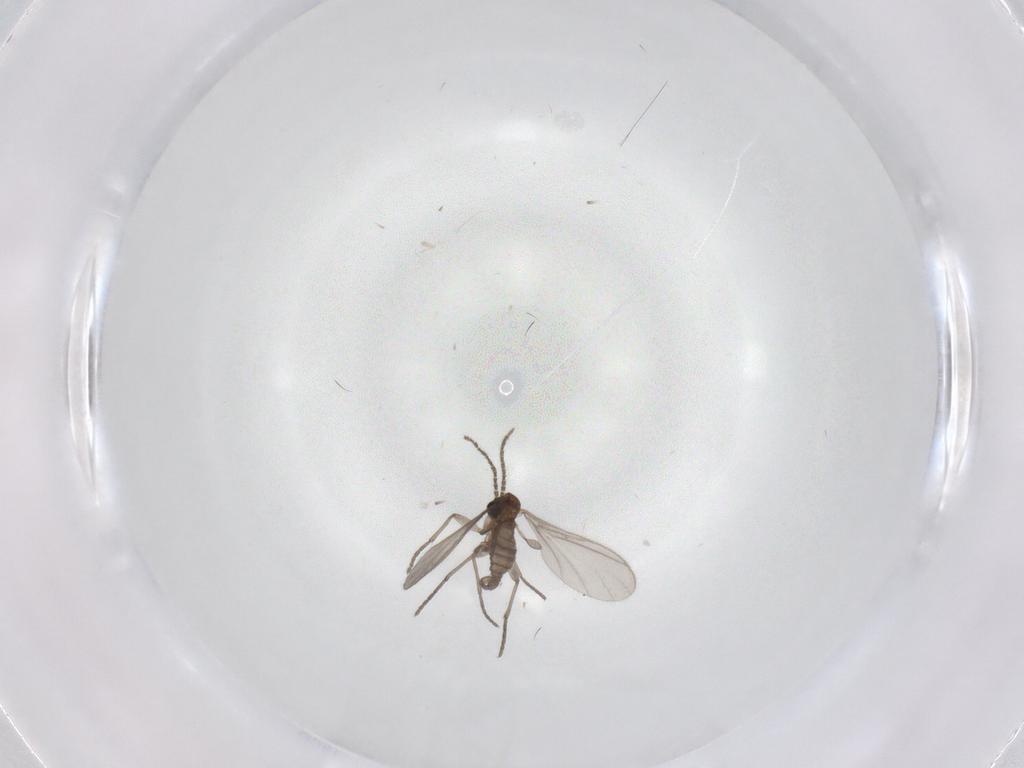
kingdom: Animalia
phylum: Arthropoda
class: Insecta
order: Diptera
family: Sciaridae
